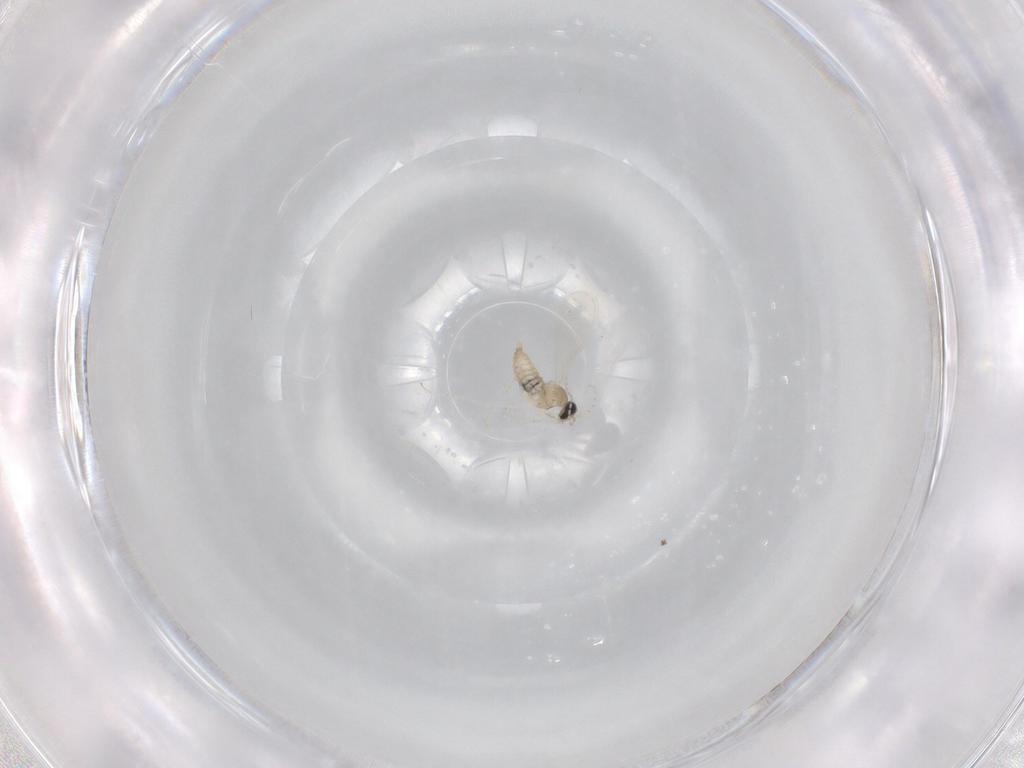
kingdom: Animalia
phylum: Arthropoda
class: Insecta
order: Diptera
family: Cecidomyiidae
